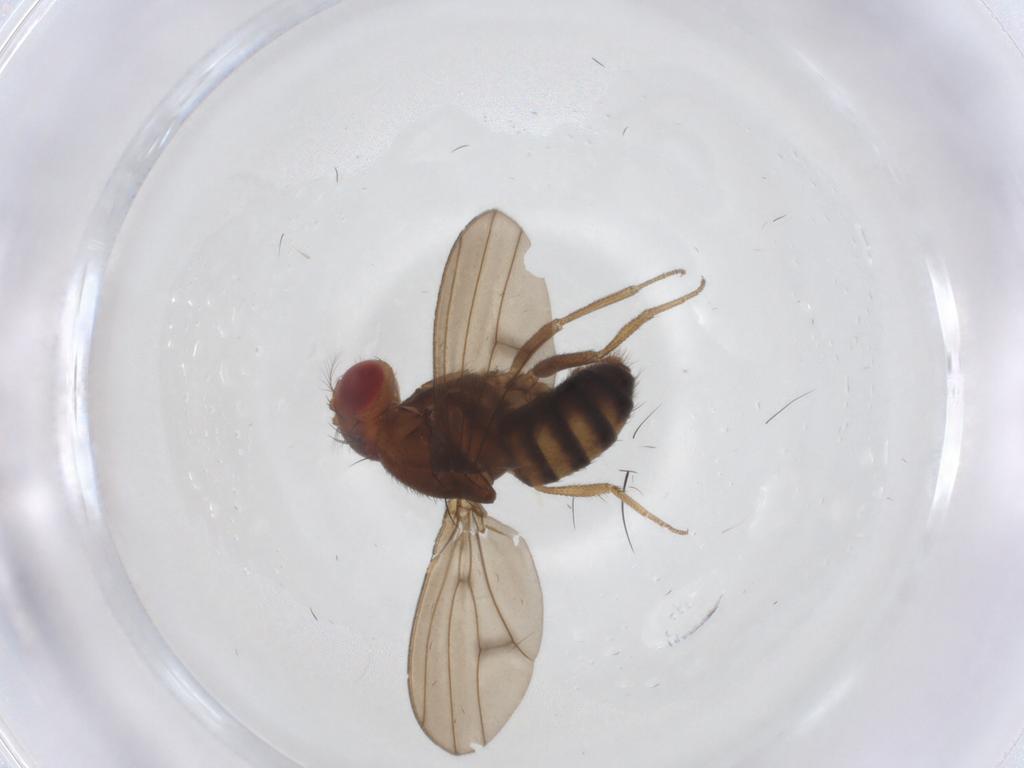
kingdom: Animalia
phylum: Arthropoda
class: Insecta
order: Diptera
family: Drosophilidae
